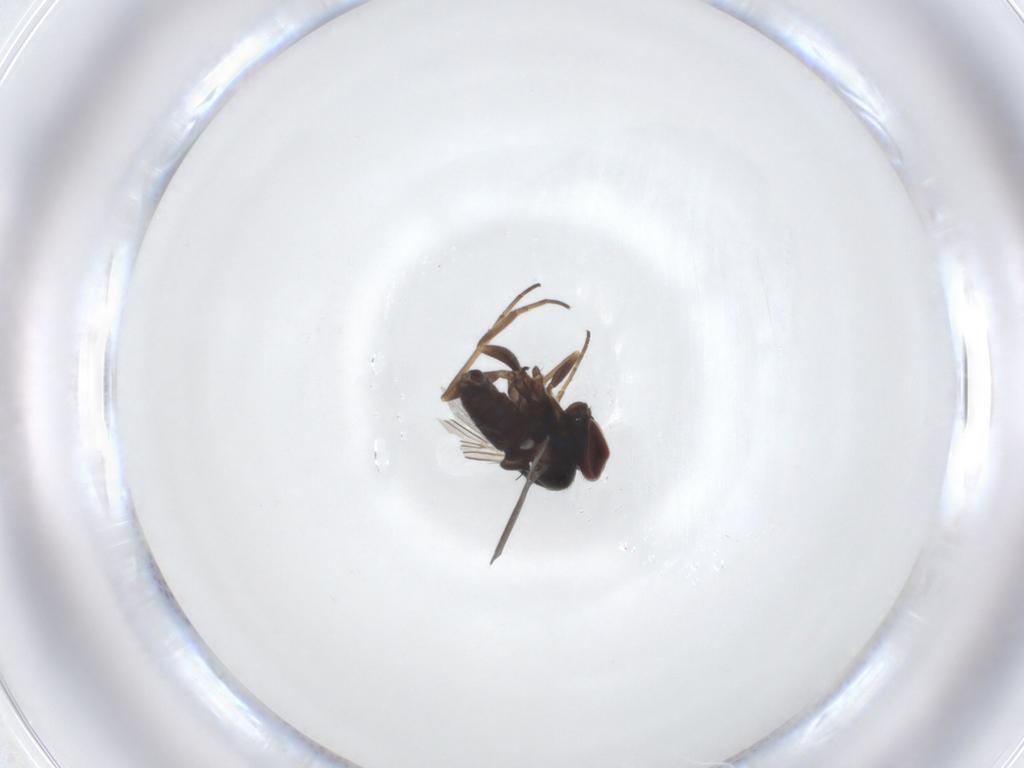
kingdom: Animalia
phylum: Arthropoda
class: Insecta
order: Diptera
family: Dolichopodidae
